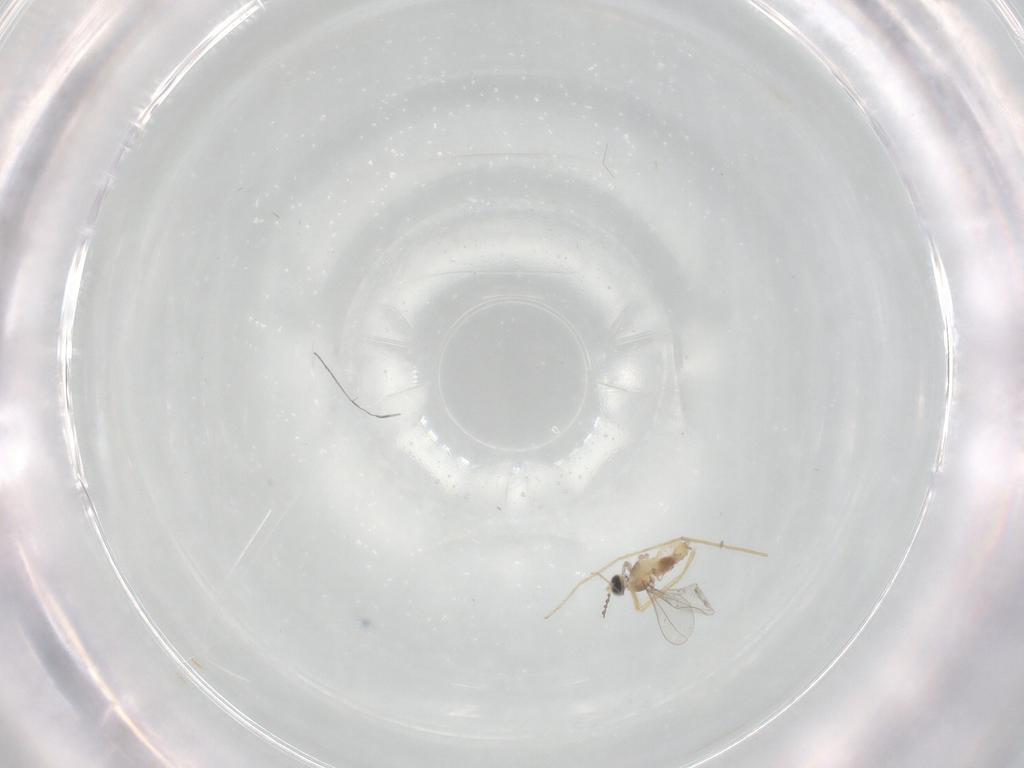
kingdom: Animalia
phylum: Arthropoda
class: Insecta
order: Diptera
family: Cecidomyiidae
